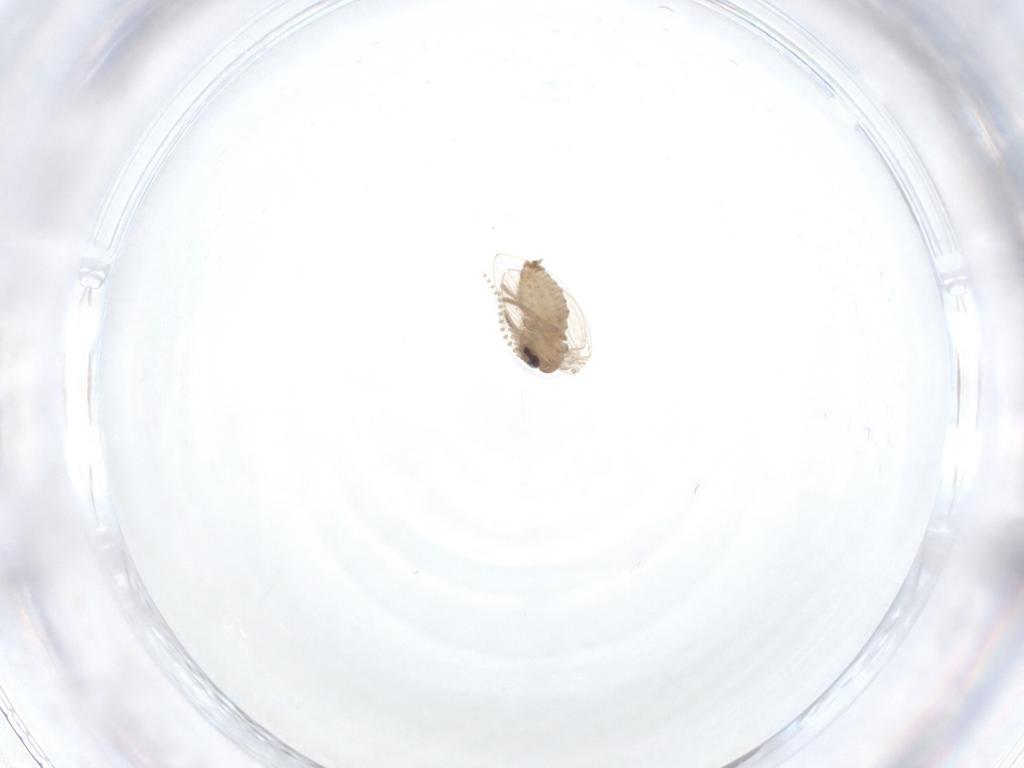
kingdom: Animalia
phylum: Arthropoda
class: Insecta
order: Diptera
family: Psychodidae
